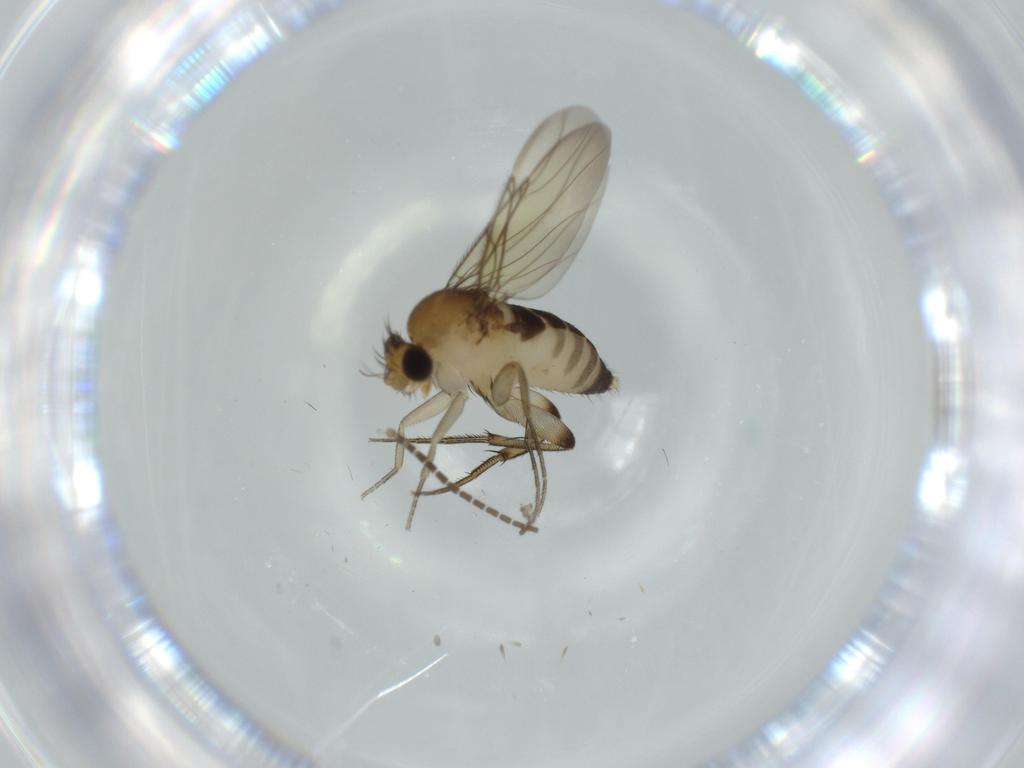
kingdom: Animalia
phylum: Arthropoda
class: Insecta
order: Diptera
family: Phoridae
